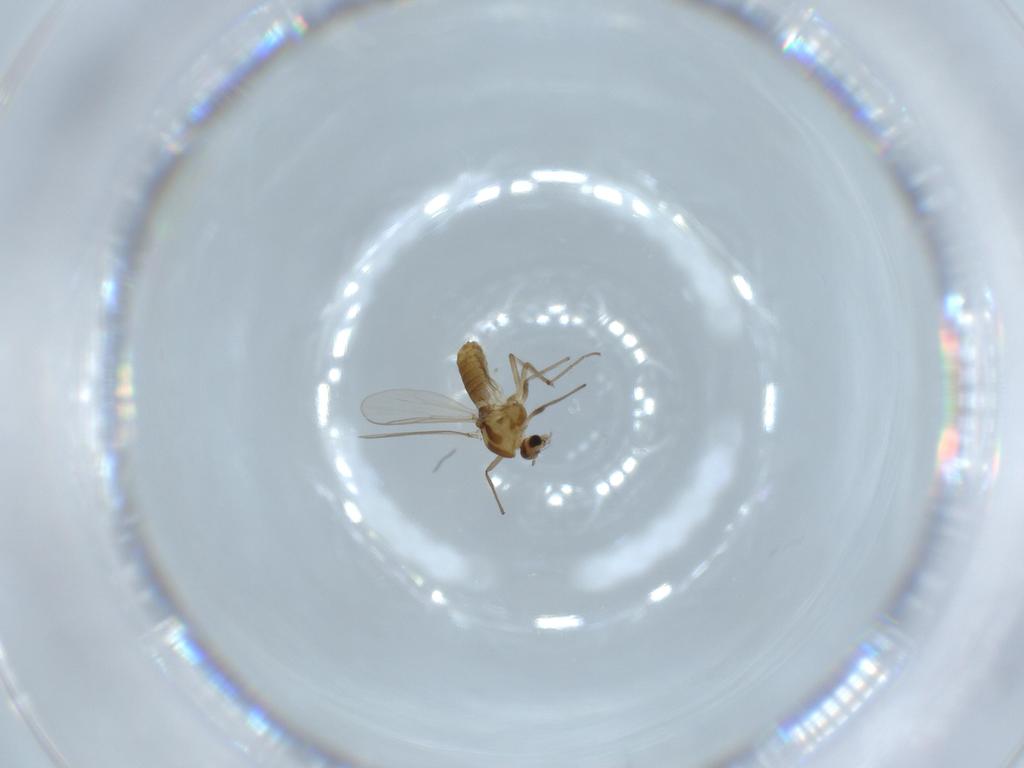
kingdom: Animalia
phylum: Arthropoda
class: Insecta
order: Diptera
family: Chironomidae
